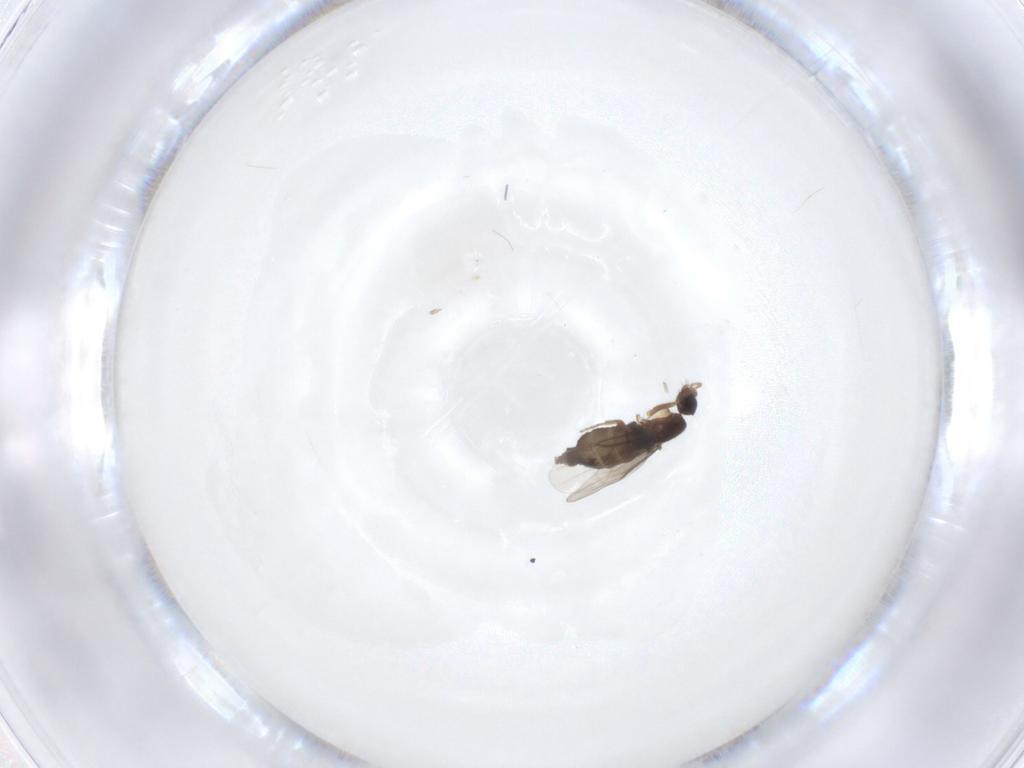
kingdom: Animalia
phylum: Arthropoda
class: Insecta
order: Diptera
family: Phoridae
